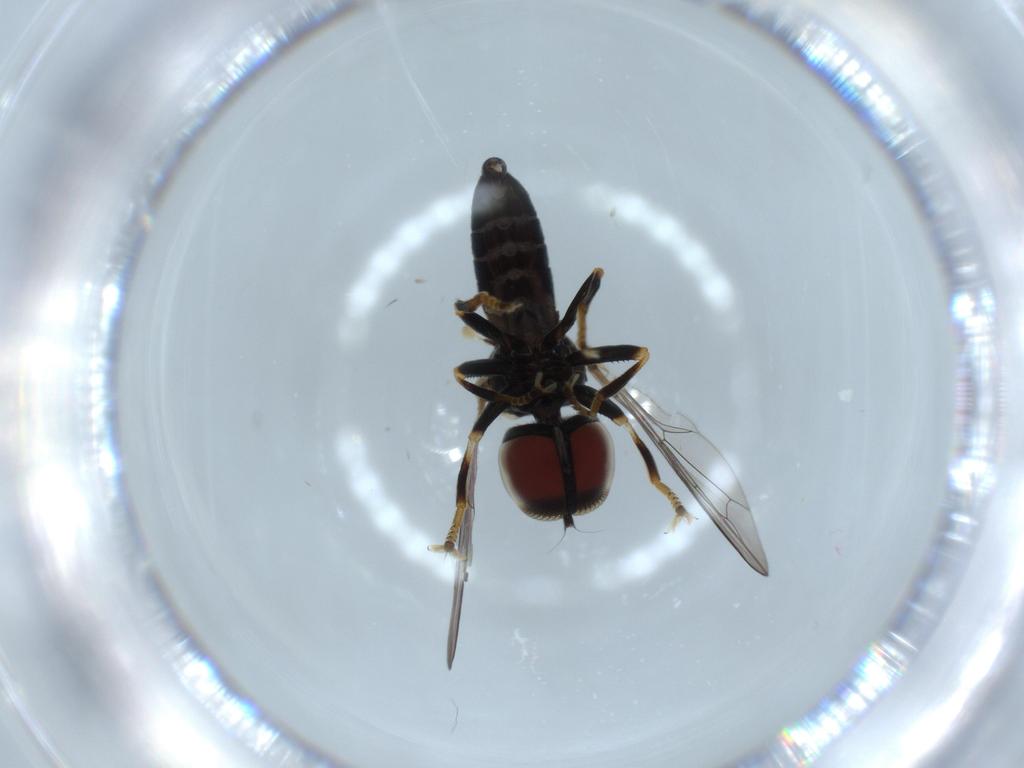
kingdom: Animalia
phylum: Arthropoda
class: Insecta
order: Diptera
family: Pipunculidae
